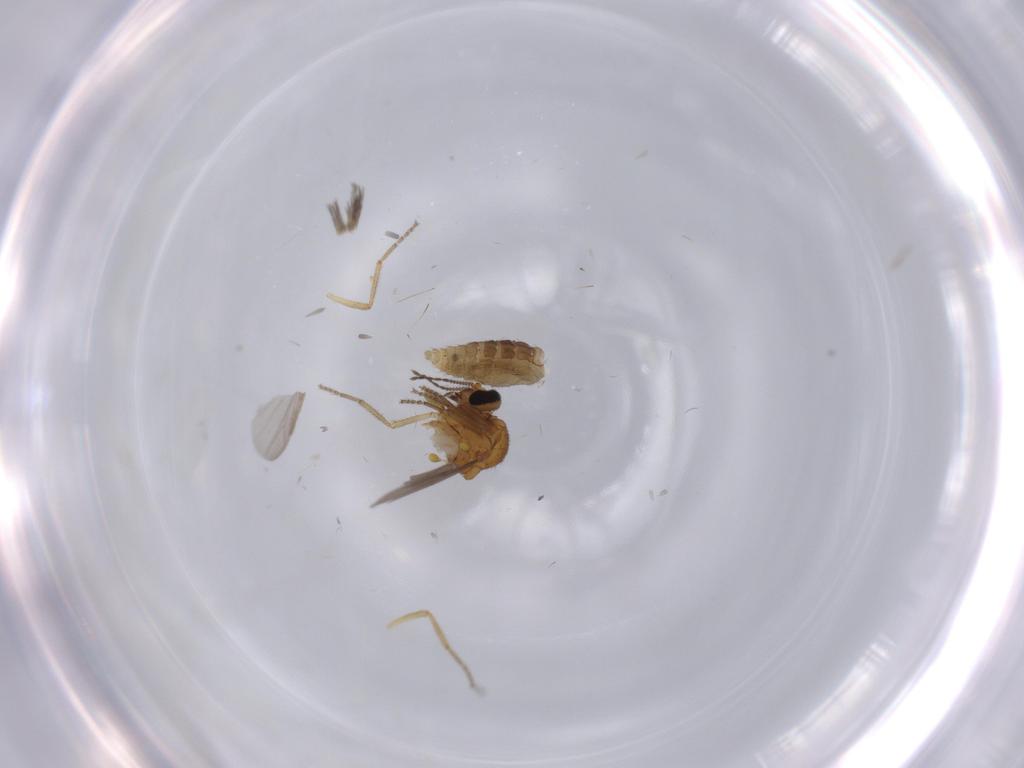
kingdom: Animalia
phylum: Arthropoda
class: Insecta
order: Diptera
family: Ceratopogonidae
